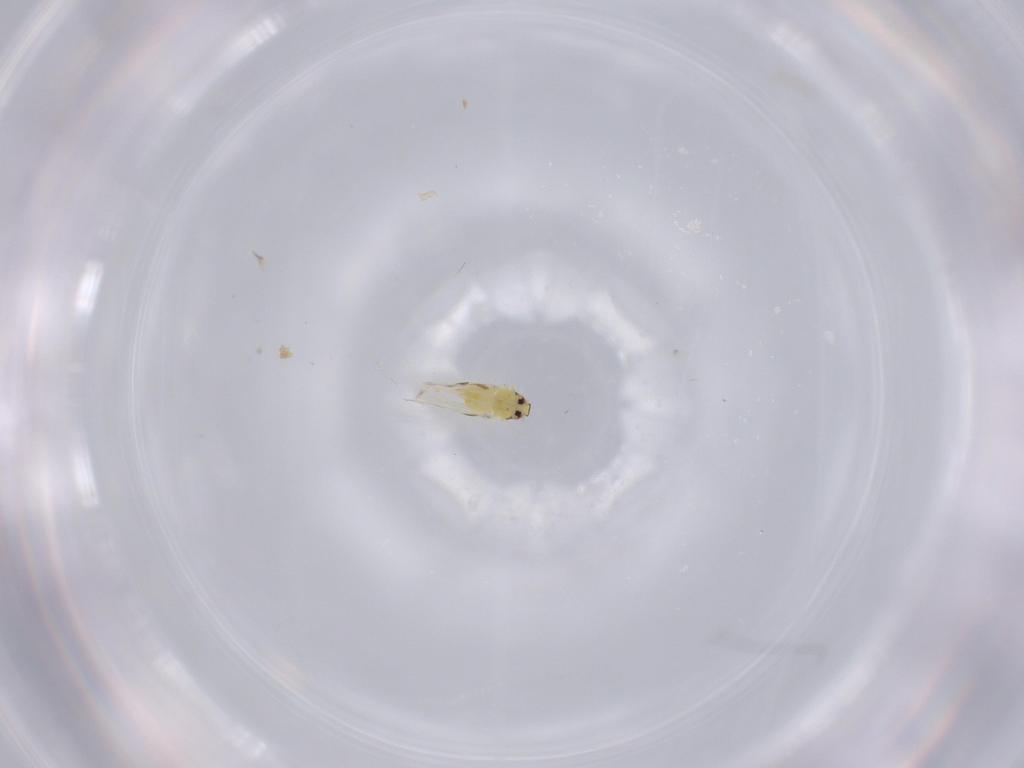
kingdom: Animalia
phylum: Arthropoda
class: Insecta
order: Hemiptera
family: Aleyrodidae
